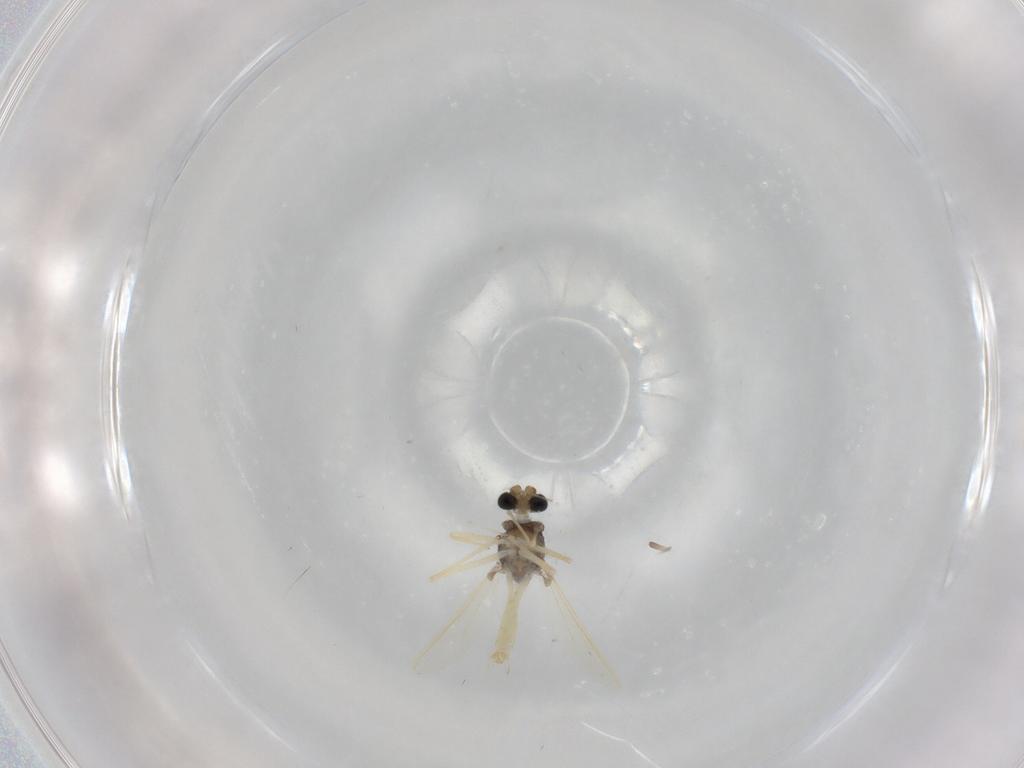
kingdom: Animalia
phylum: Arthropoda
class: Insecta
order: Diptera
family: Chironomidae
